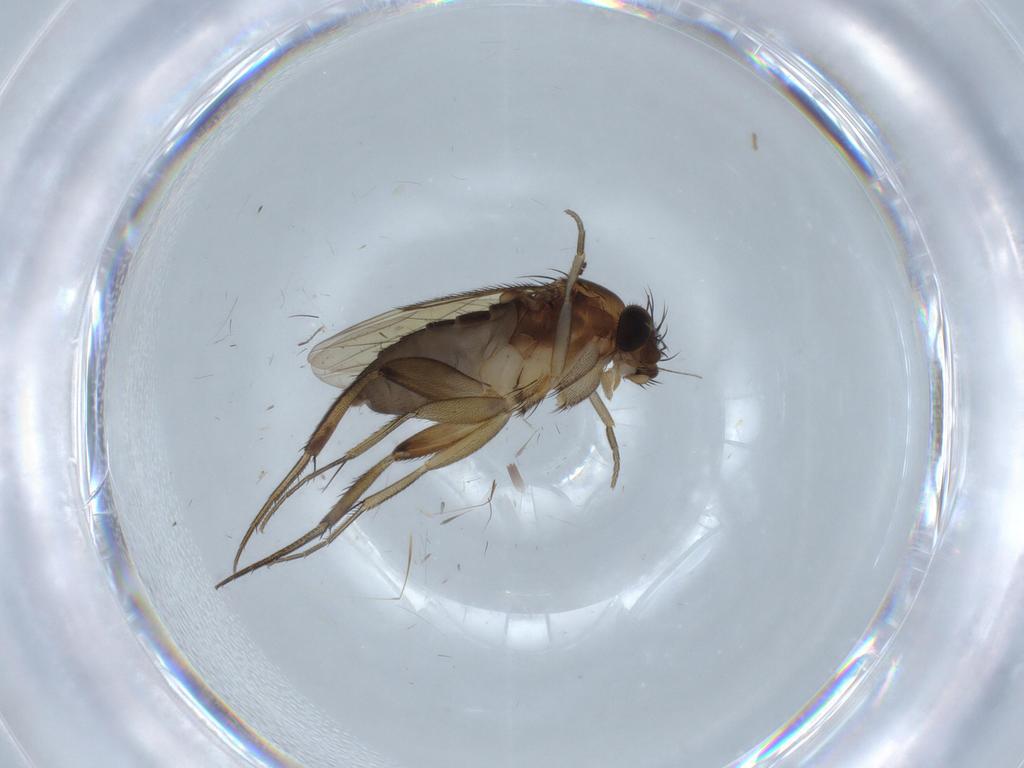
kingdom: Animalia
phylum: Arthropoda
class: Insecta
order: Diptera
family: Phoridae
